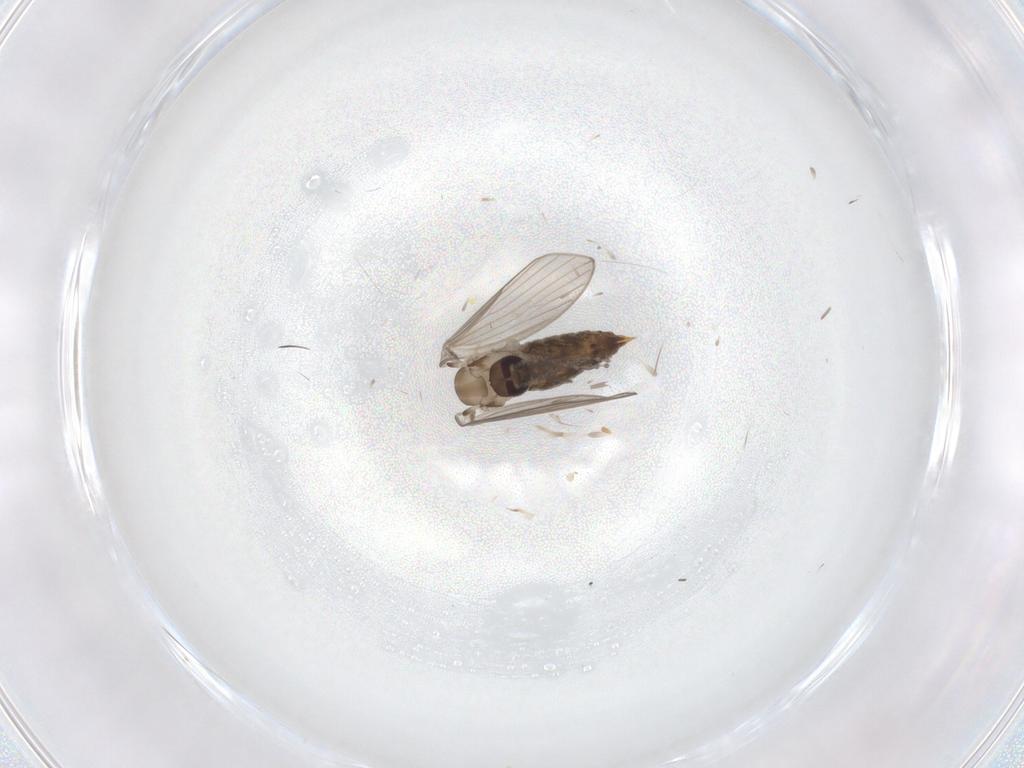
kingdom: Animalia
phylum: Arthropoda
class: Insecta
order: Diptera
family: Psychodidae
